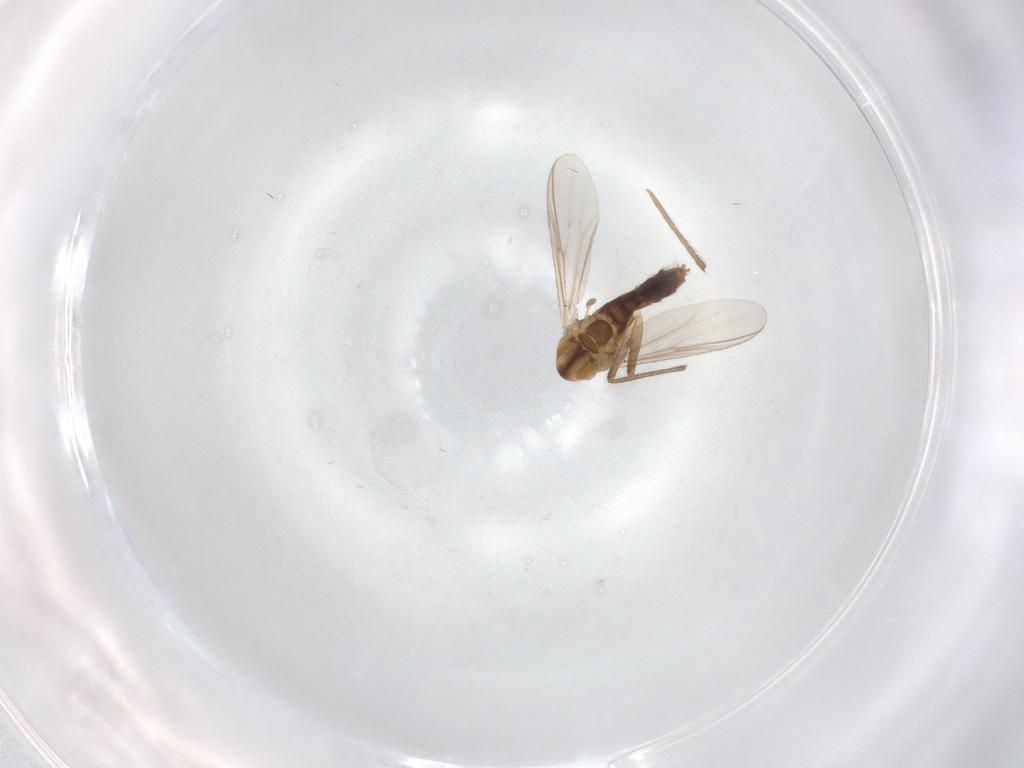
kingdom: Animalia
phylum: Arthropoda
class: Insecta
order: Diptera
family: Chironomidae
